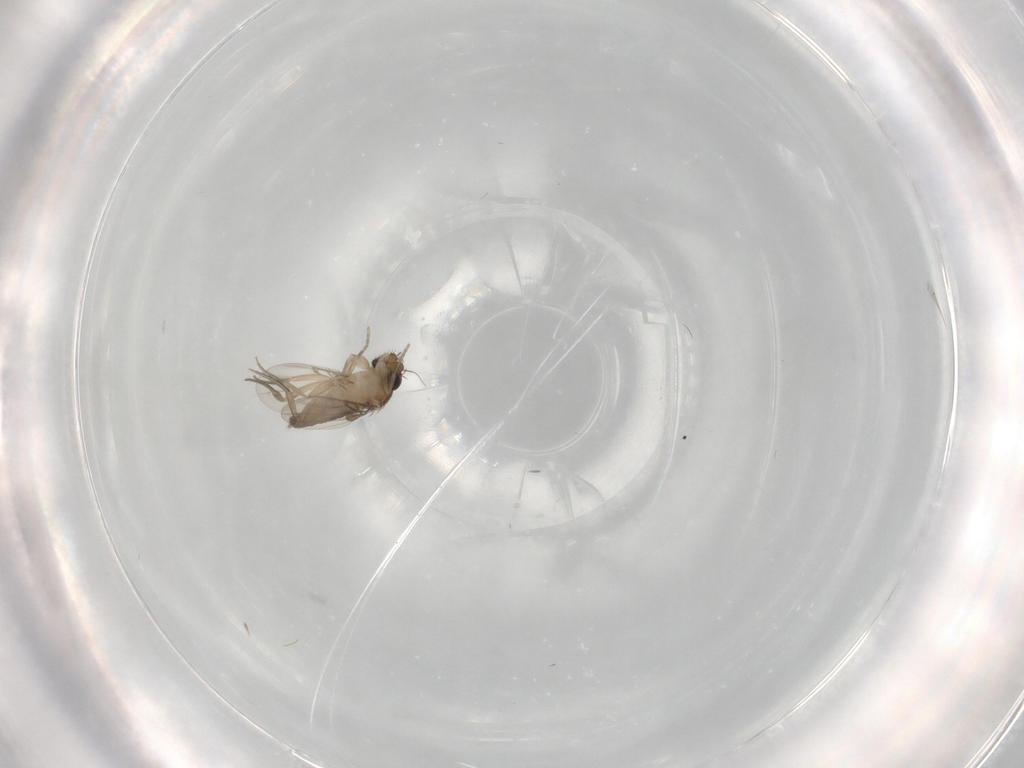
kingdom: Animalia
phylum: Arthropoda
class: Insecta
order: Diptera
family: Phoridae
